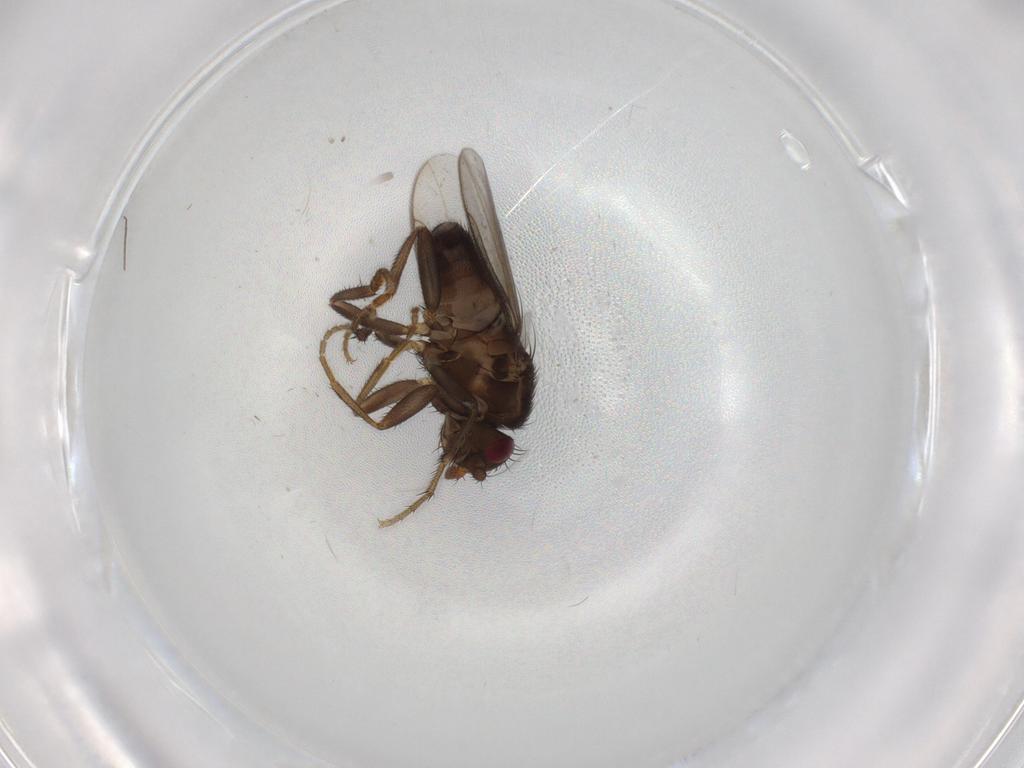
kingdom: Animalia
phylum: Arthropoda
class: Insecta
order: Diptera
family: Sphaeroceridae
